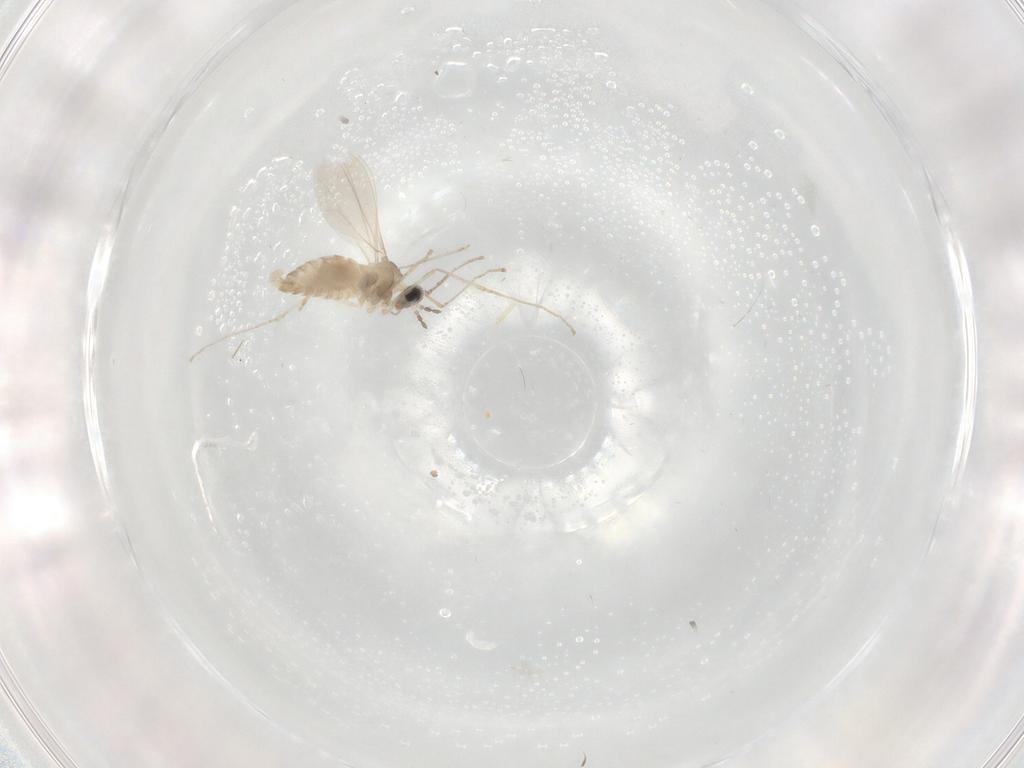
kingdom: Animalia
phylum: Arthropoda
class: Insecta
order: Diptera
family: Cecidomyiidae
